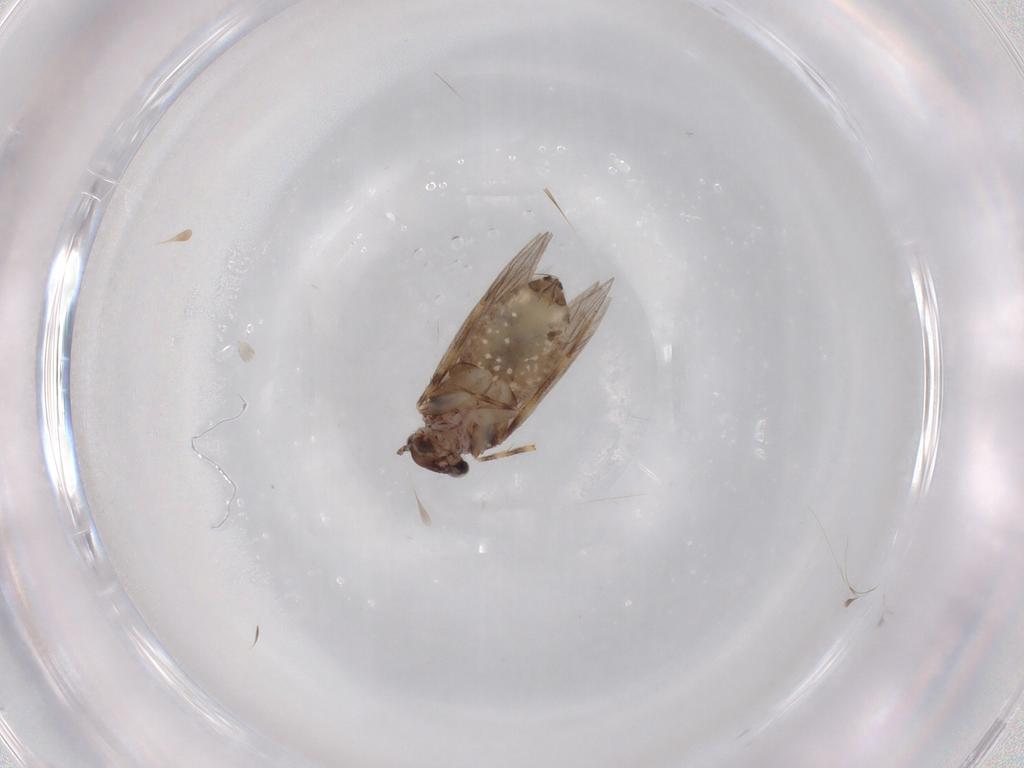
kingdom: Animalia
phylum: Arthropoda
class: Insecta
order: Psocodea
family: Lepidopsocidae
